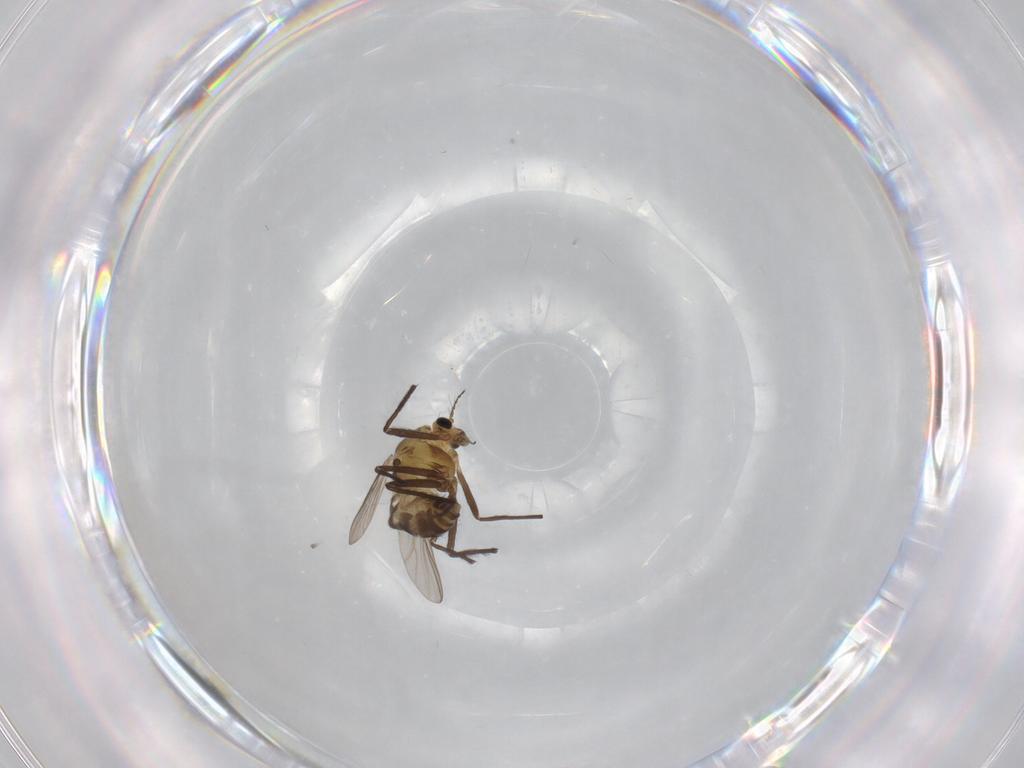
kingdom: Animalia
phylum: Arthropoda
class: Insecta
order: Diptera
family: Chironomidae
